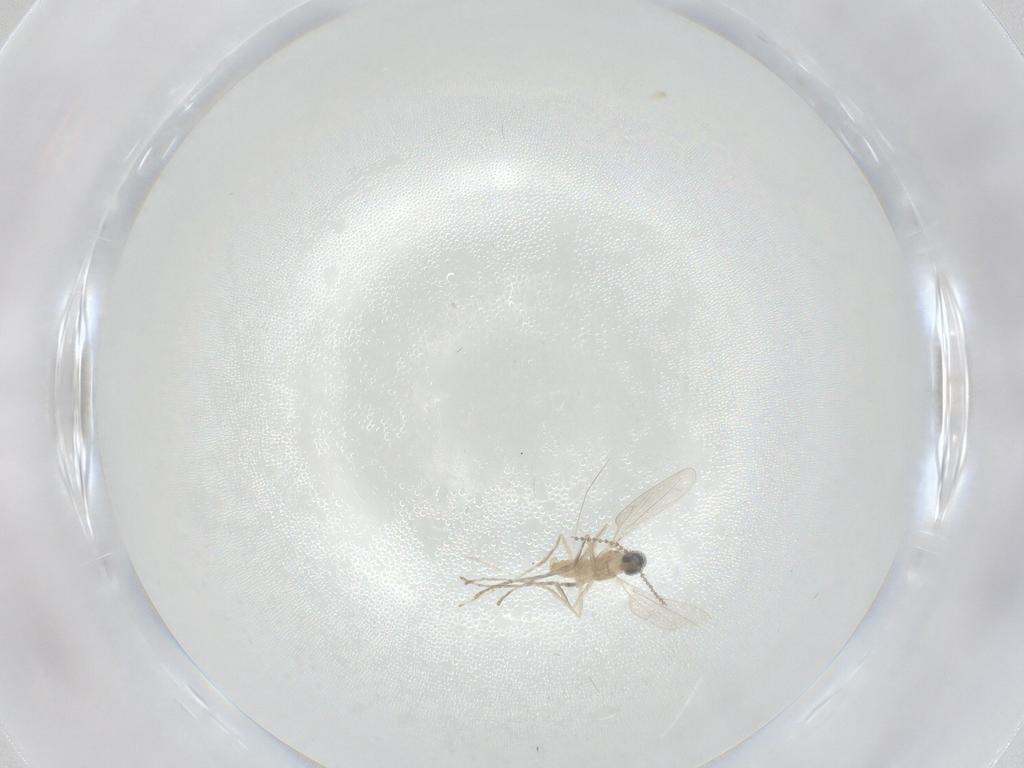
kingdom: Animalia
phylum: Arthropoda
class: Insecta
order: Diptera
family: Cecidomyiidae
